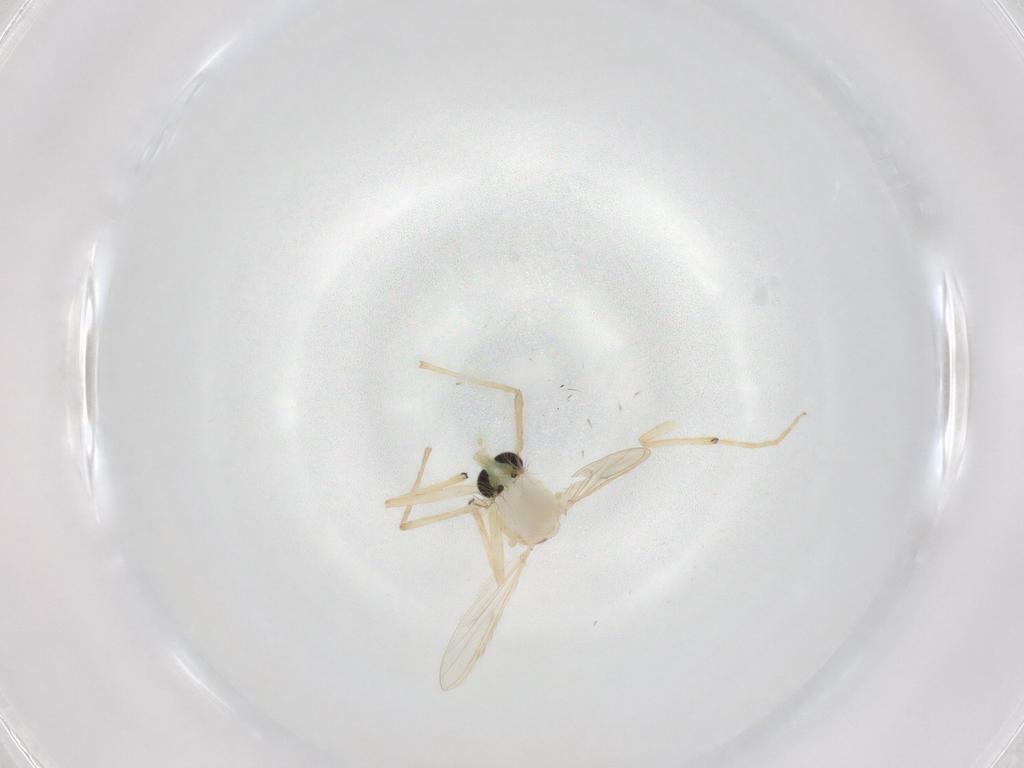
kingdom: Animalia
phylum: Arthropoda
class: Insecta
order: Diptera
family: Chironomidae
